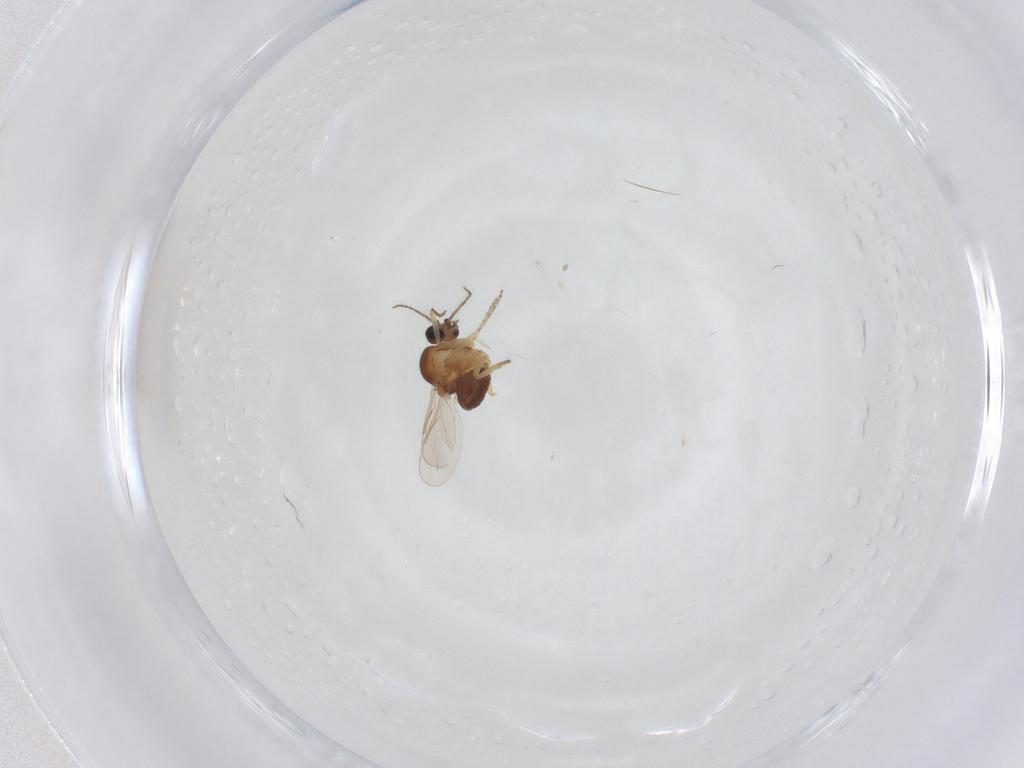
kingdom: Animalia
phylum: Arthropoda
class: Insecta
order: Diptera
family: Ceratopogonidae
